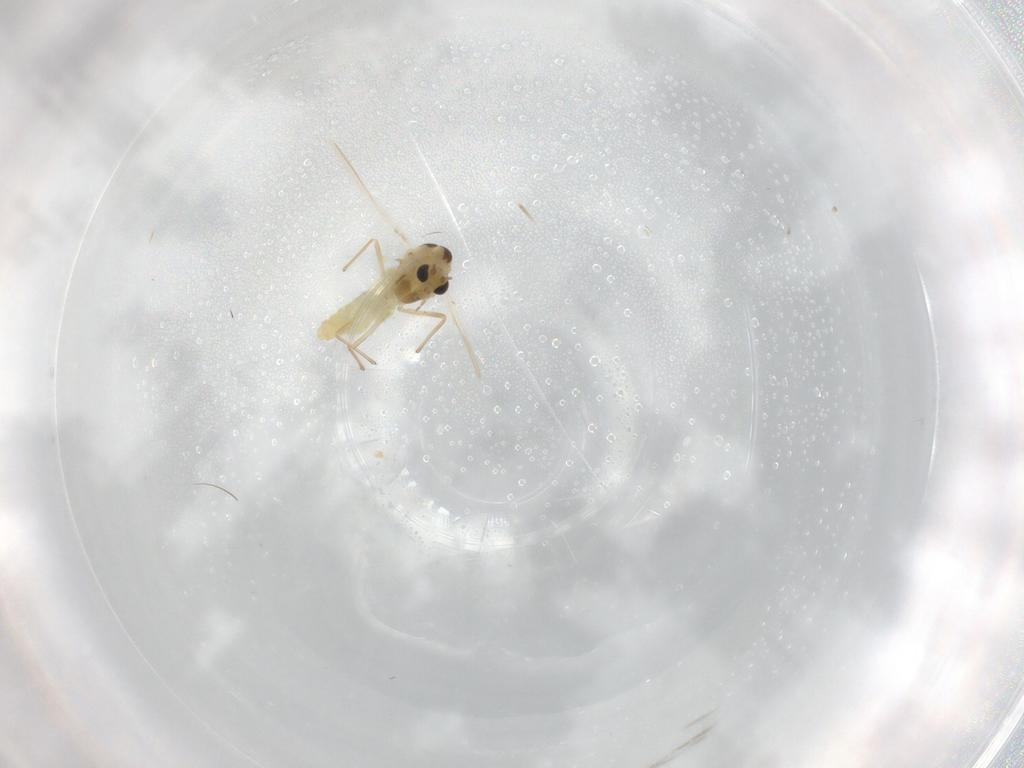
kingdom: Animalia
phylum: Arthropoda
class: Insecta
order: Diptera
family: Chironomidae
